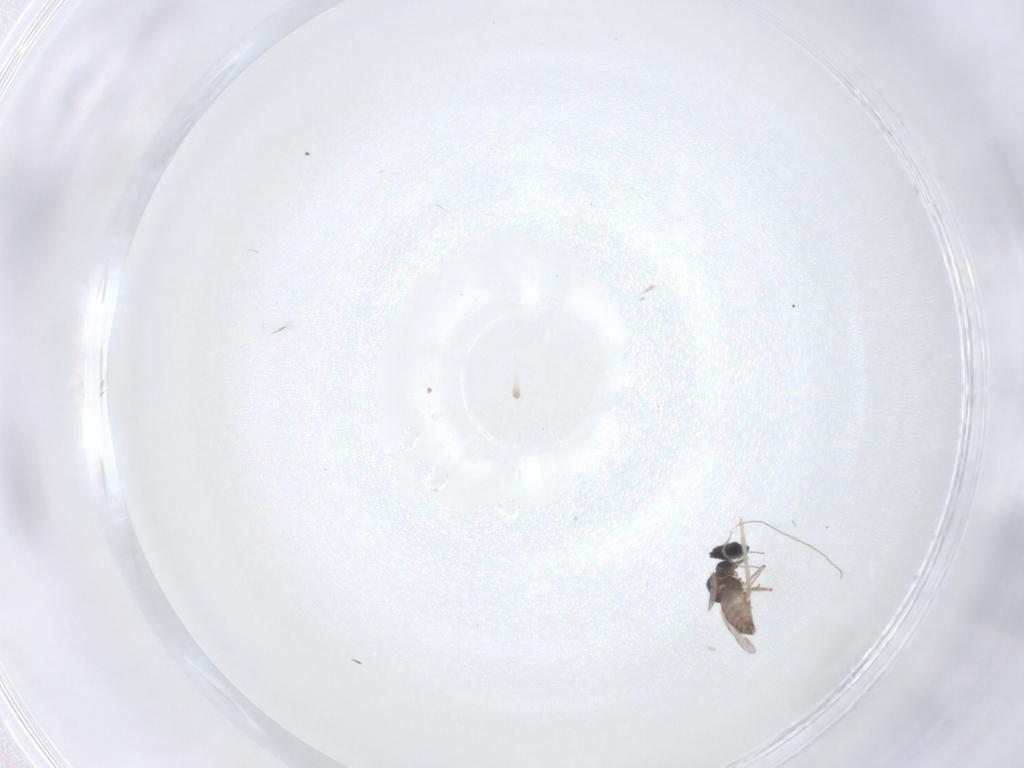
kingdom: Animalia
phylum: Arthropoda
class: Insecta
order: Diptera
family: Cecidomyiidae
